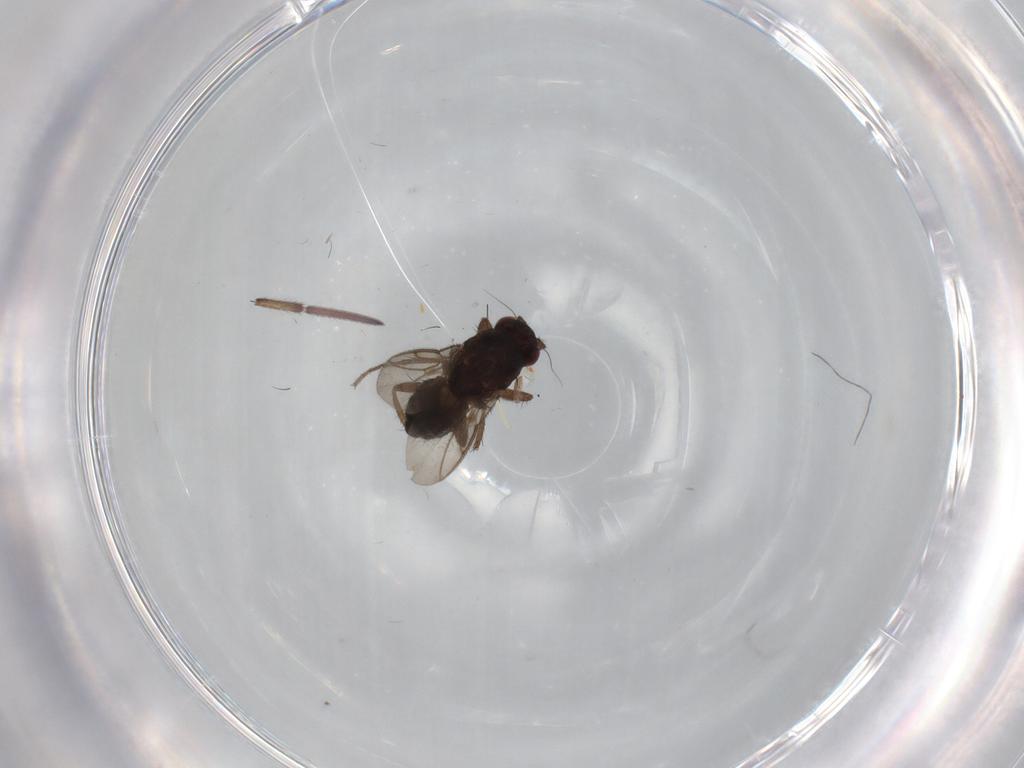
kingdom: Animalia
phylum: Arthropoda
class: Insecta
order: Diptera
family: Sphaeroceridae
